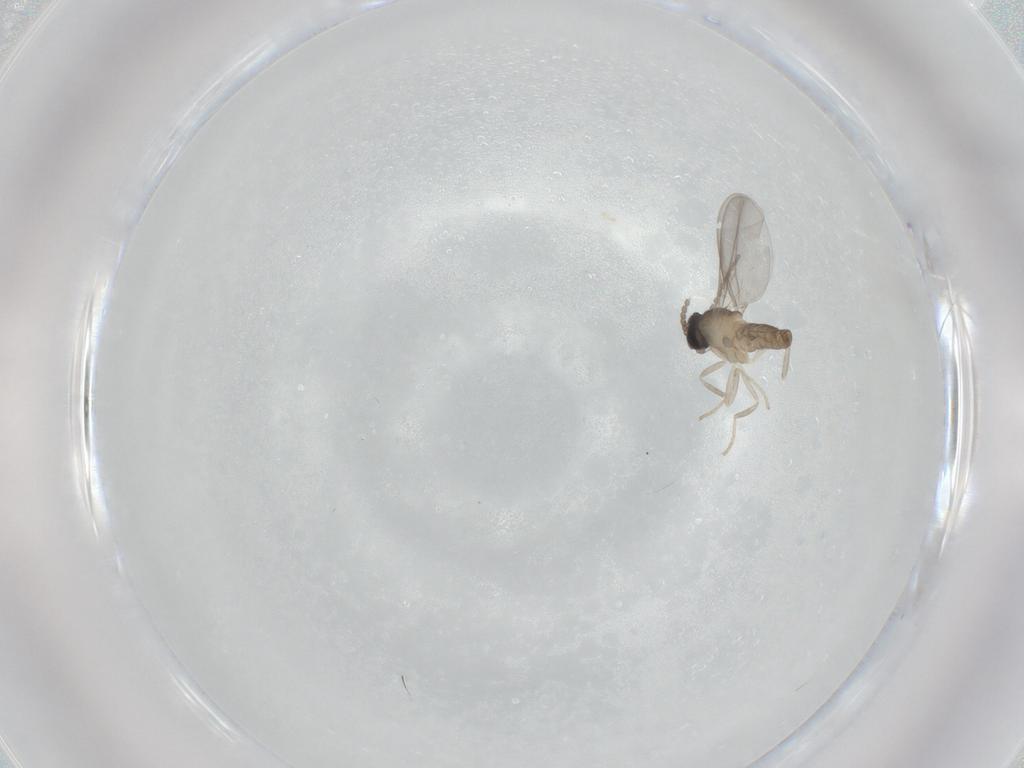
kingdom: Animalia
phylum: Arthropoda
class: Insecta
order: Diptera
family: Cecidomyiidae
